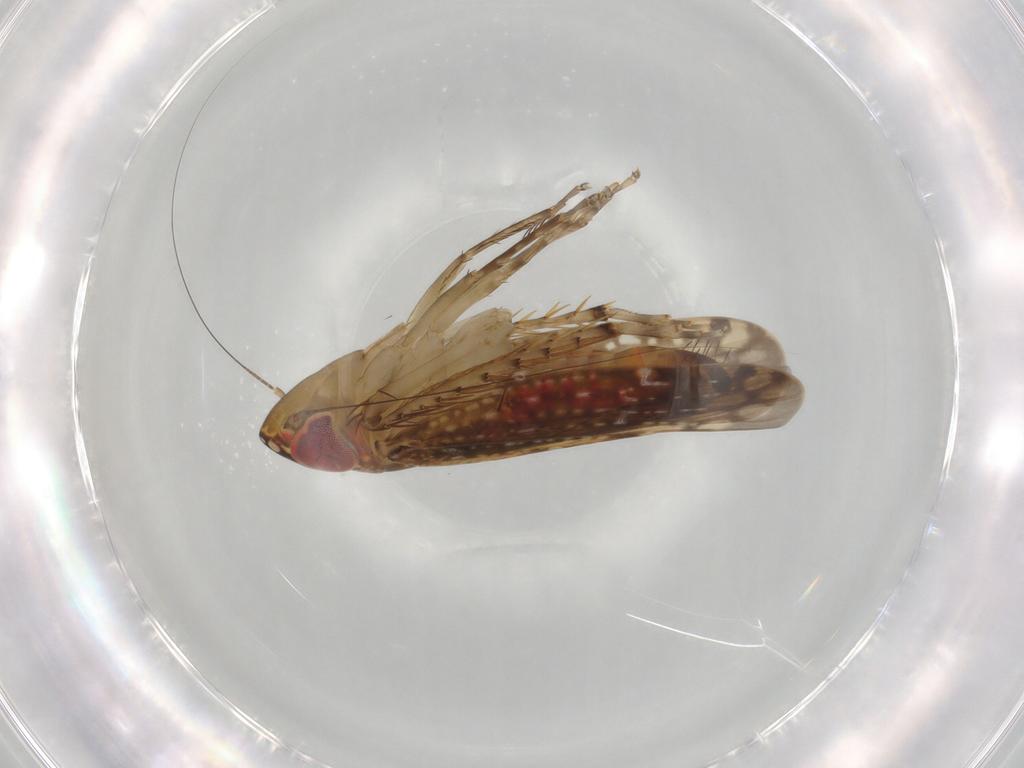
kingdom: Animalia
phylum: Arthropoda
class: Insecta
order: Hemiptera
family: Cicadellidae
